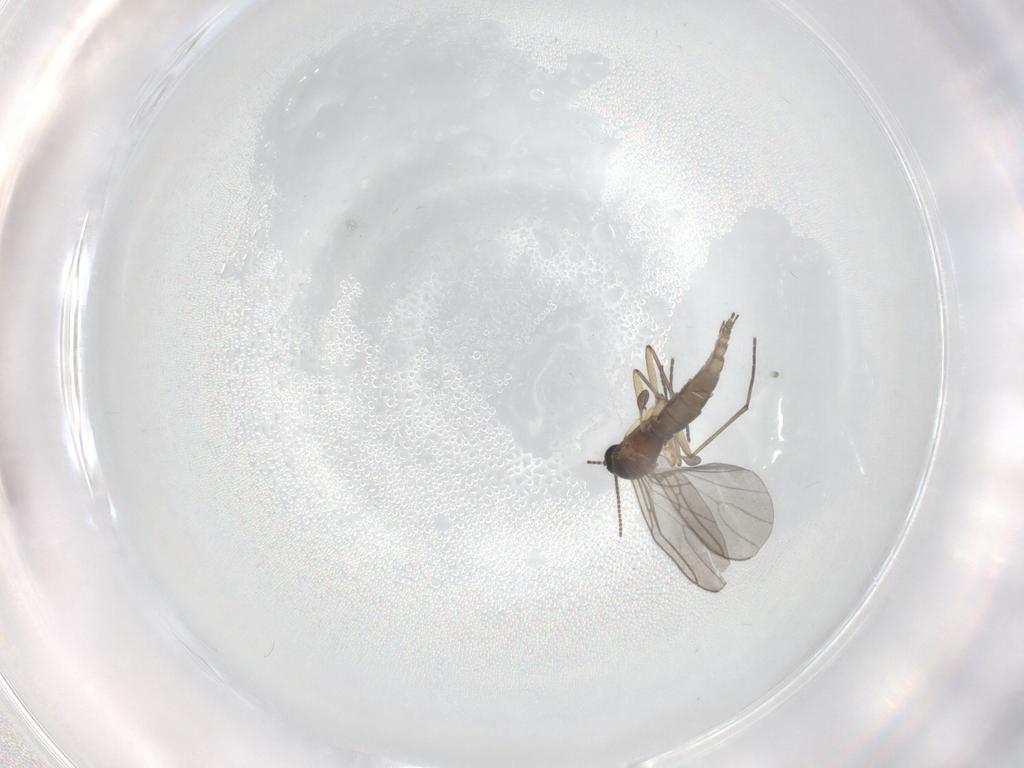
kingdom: Animalia
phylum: Arthropoda
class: Insecta
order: Diptera
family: Sciaridae
